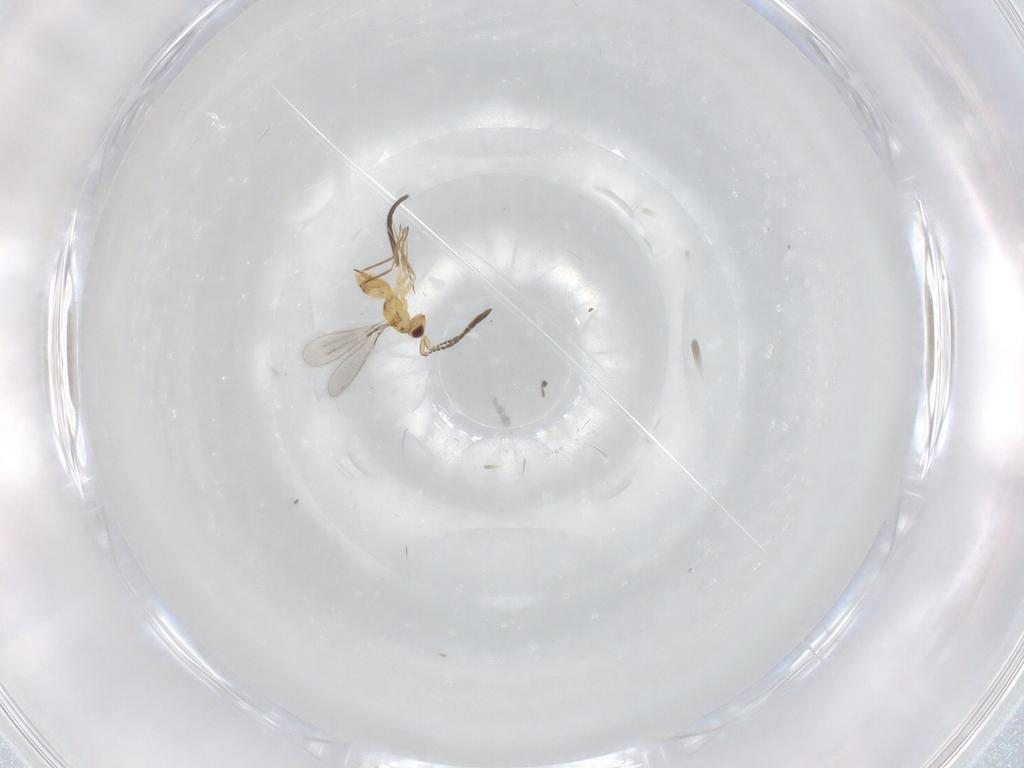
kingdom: Animalia
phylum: Arthropoda
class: Insecta
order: Hymenoptera
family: Mymaridae
